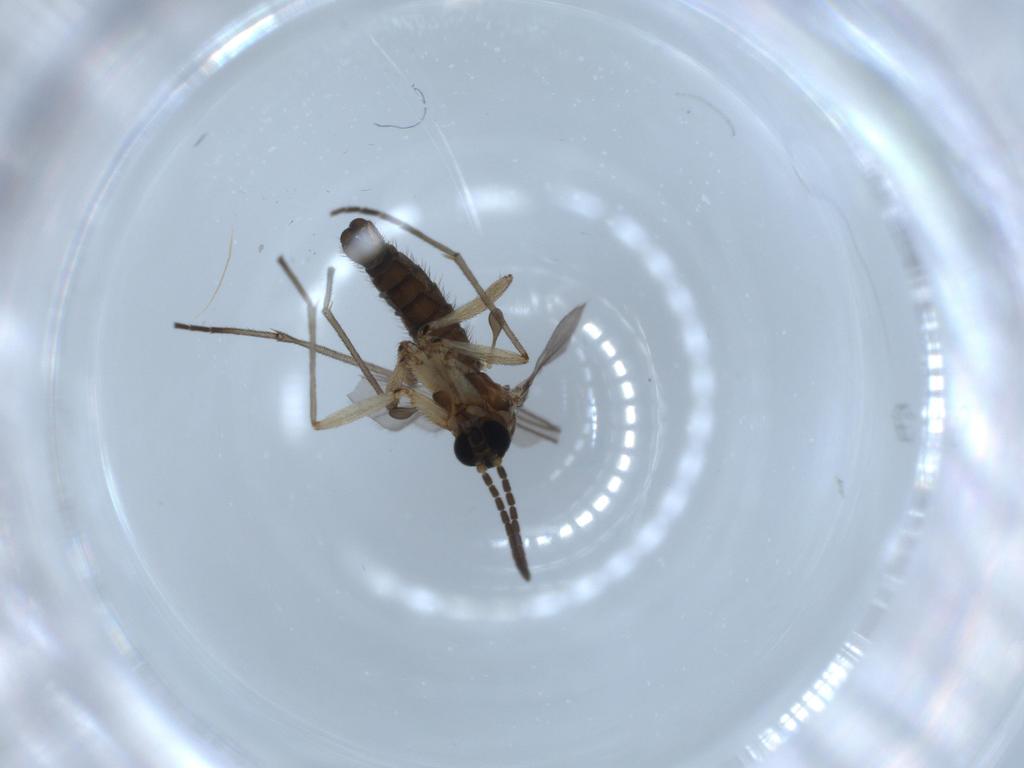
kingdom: Animalia
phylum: Arthropoda
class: Insecta
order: Diptera
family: Sciaridae
